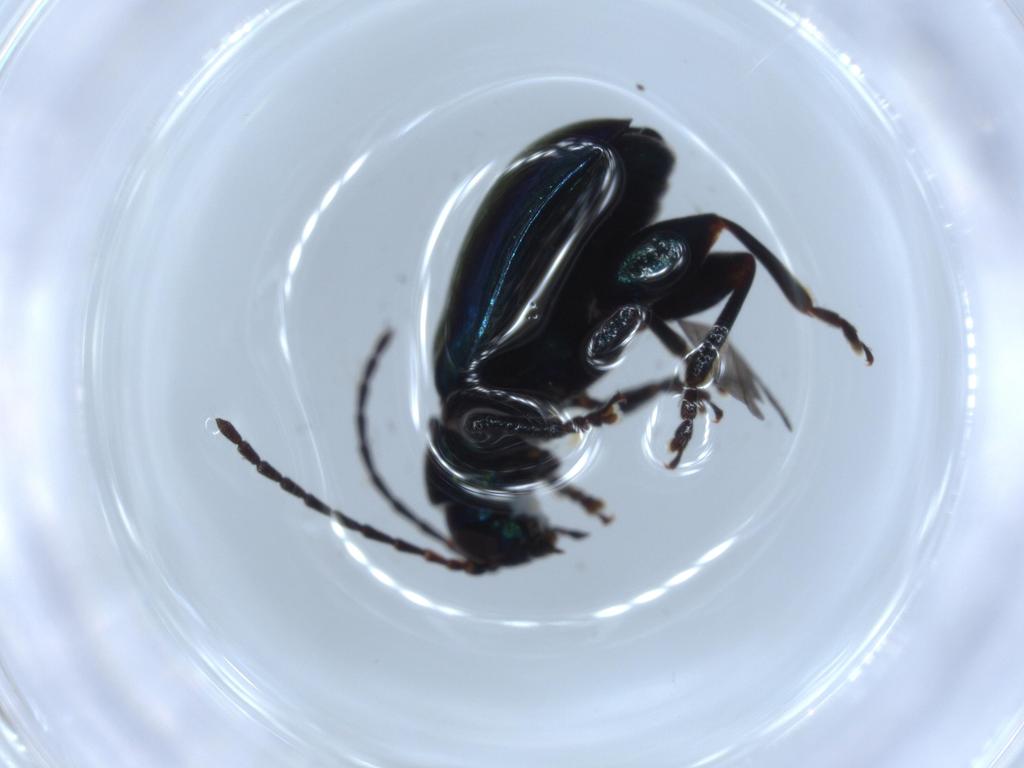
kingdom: Animalia
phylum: Arthropoda
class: Insecta
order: Coleoptera
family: Chrysomelidae
